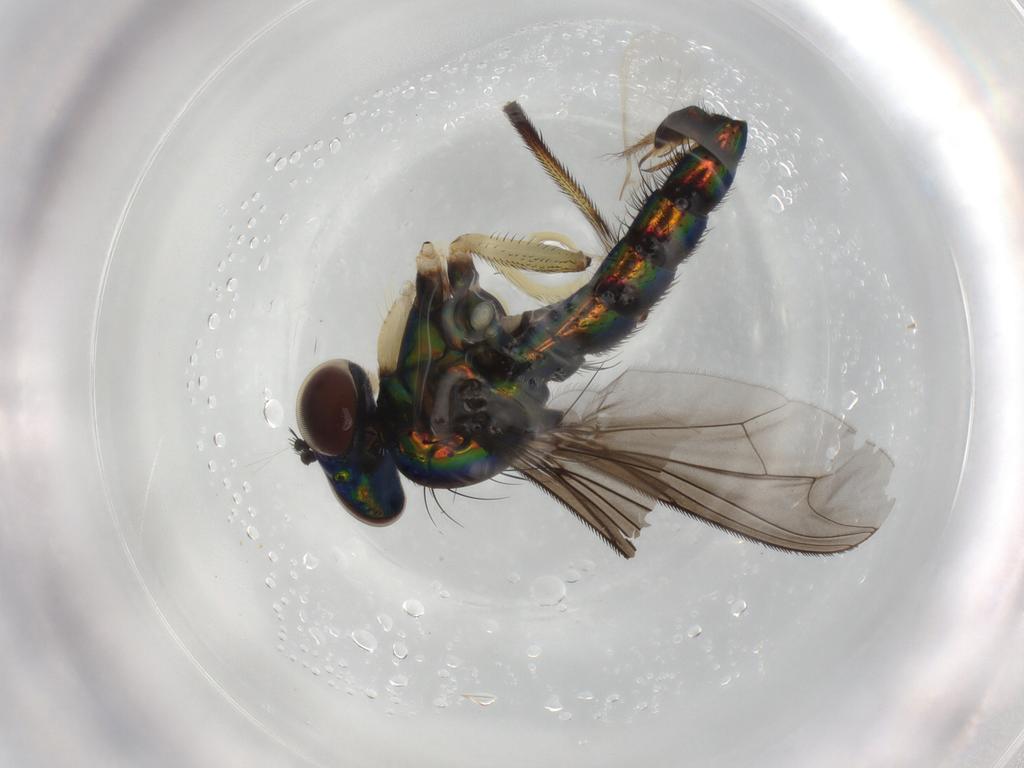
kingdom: Animalia
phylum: Arthropoda
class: Insecta
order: Diptera
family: Dolichopodidae
